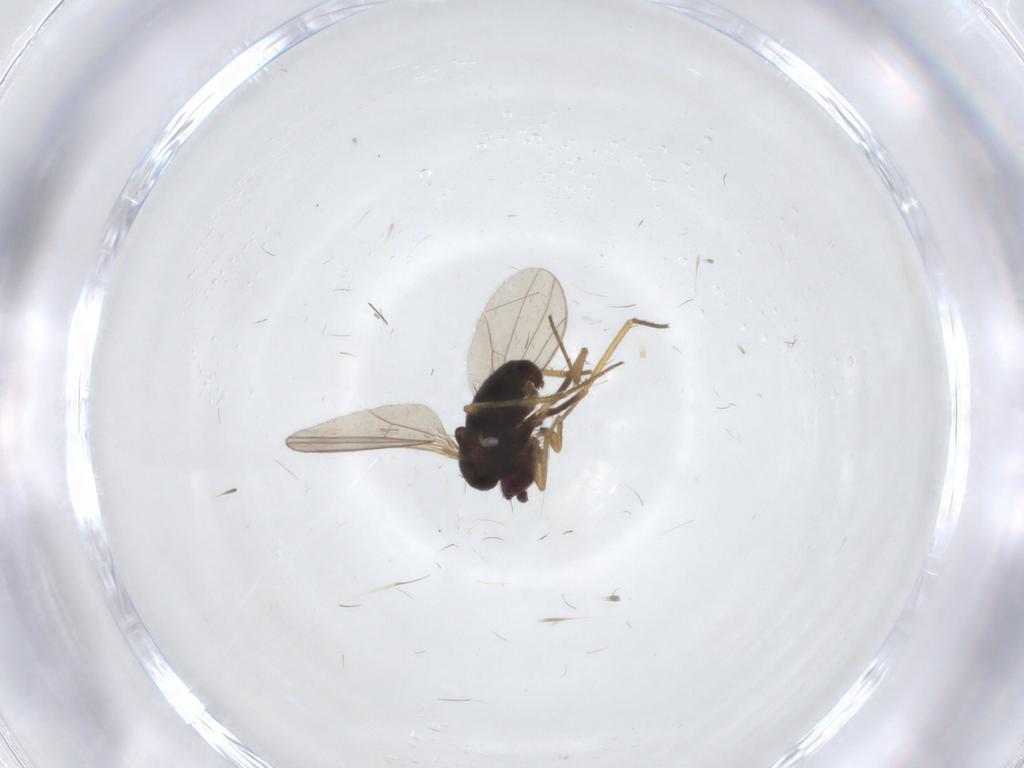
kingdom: Animalia
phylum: Arthropoda
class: Insecta
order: Diptera
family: Dolichopodidae
